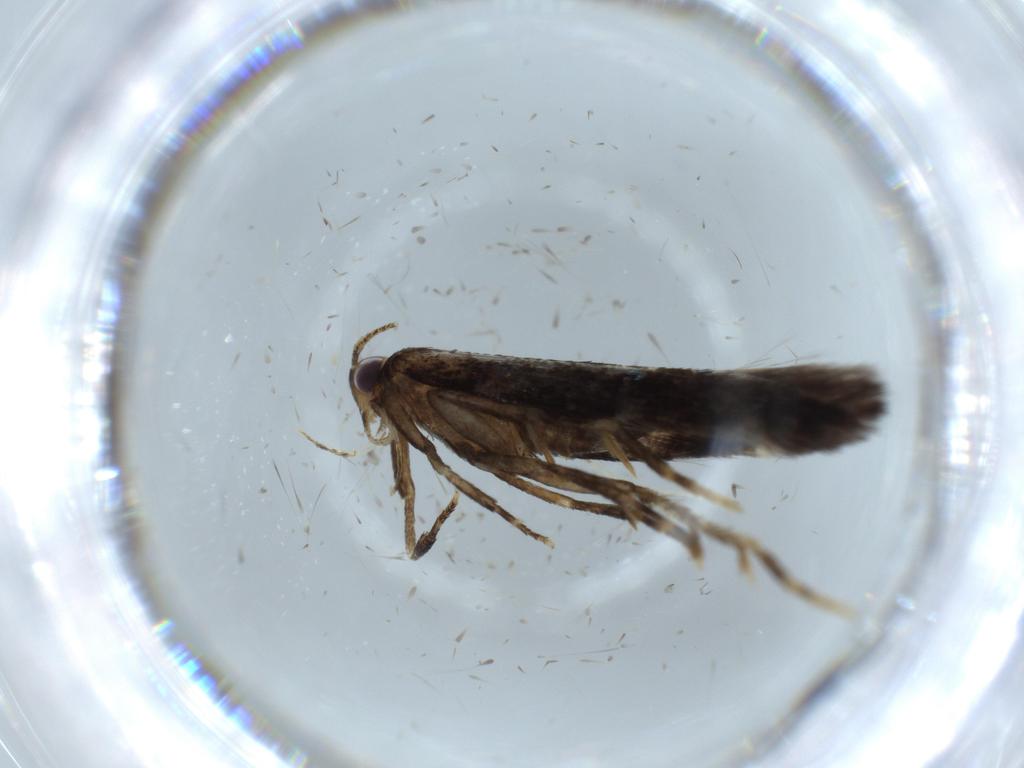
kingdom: Animalia
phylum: Arthropoda
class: Insecta
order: Lepidoptera
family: Cosmopterigidae
